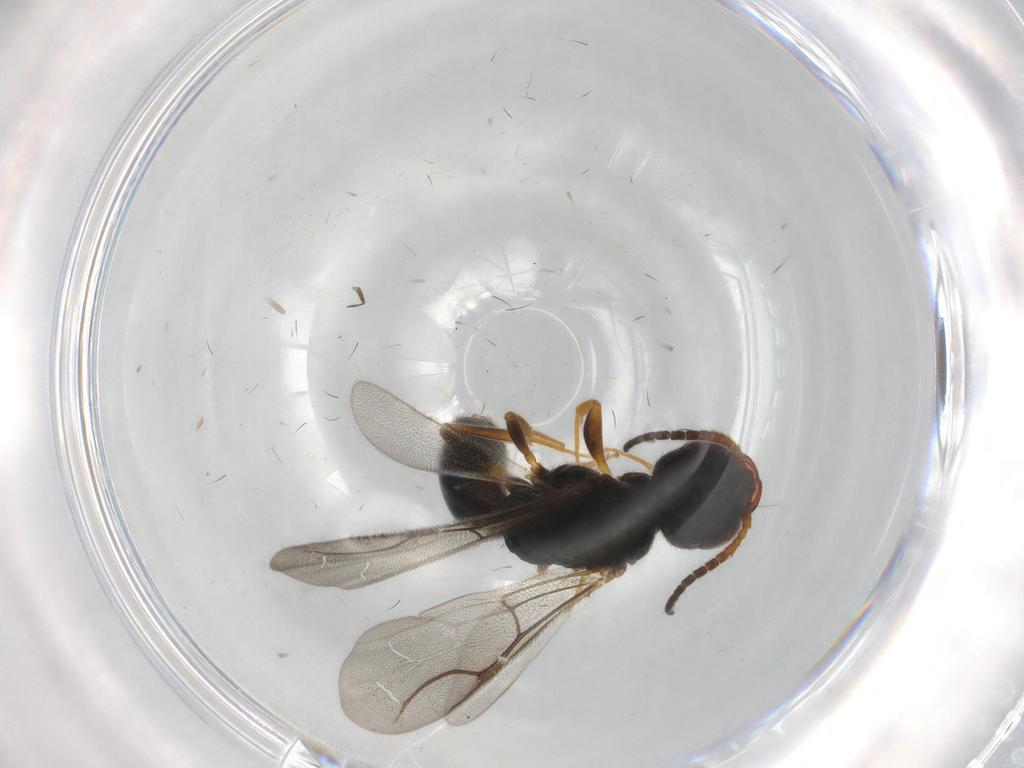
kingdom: Animalia
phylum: Arthropoda
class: Insecta
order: Hymenoptera
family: Bethylidae
